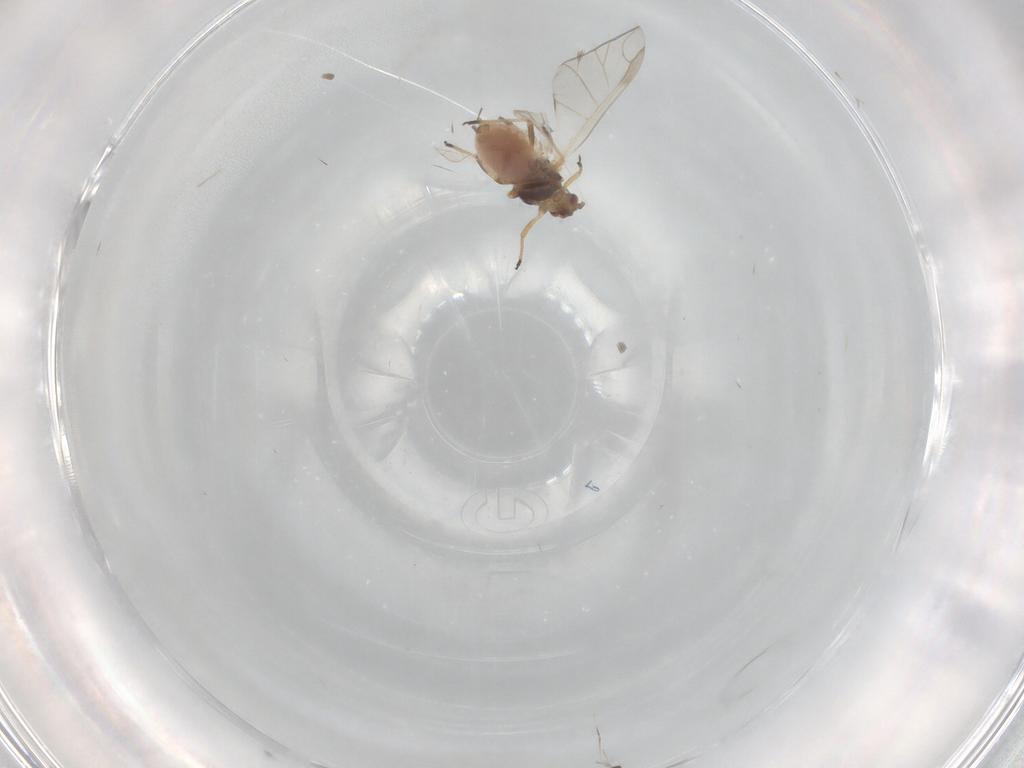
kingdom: Animalia
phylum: Arthropoda
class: Insecta
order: Hemiptera
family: Aphididae
